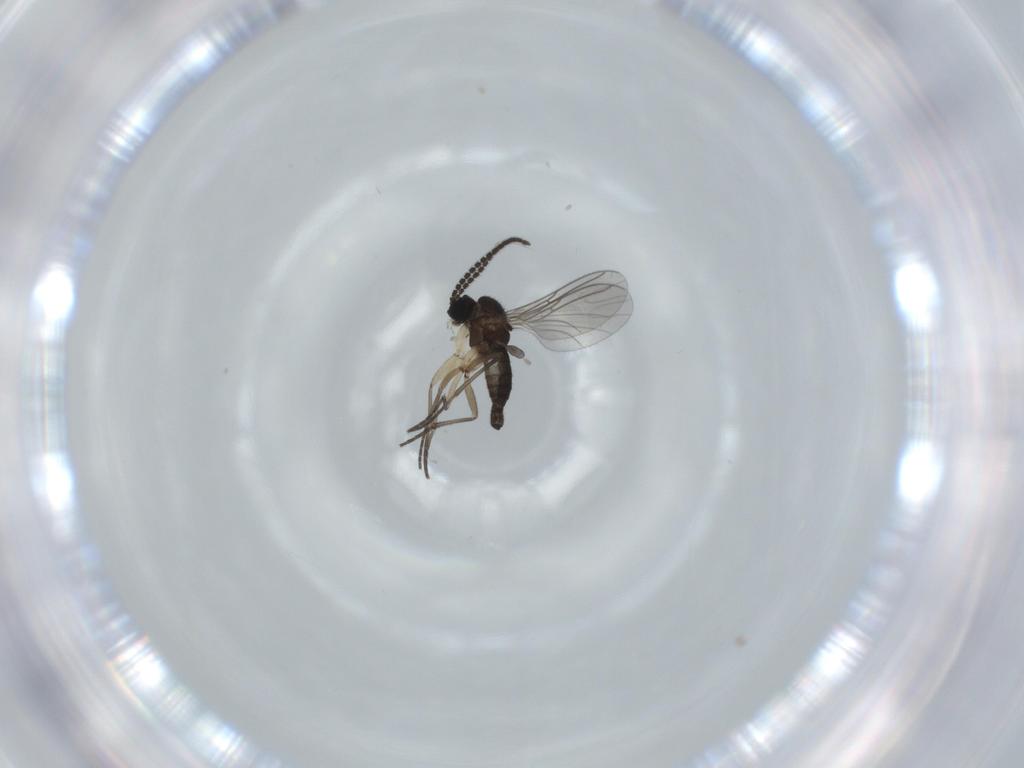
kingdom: Animalia
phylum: Arthropoda
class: Insecta
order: Diptera
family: Sciaridae
